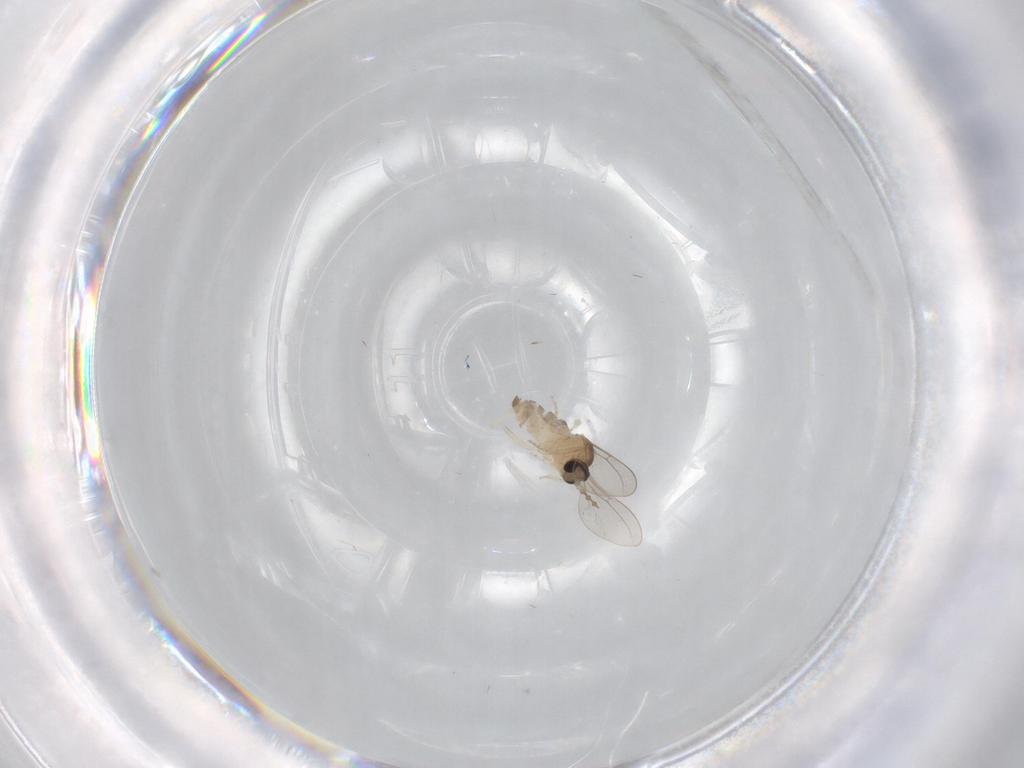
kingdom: Animalia
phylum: Arthropoda
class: Insecta
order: Diptera
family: Cecidomyiidae
